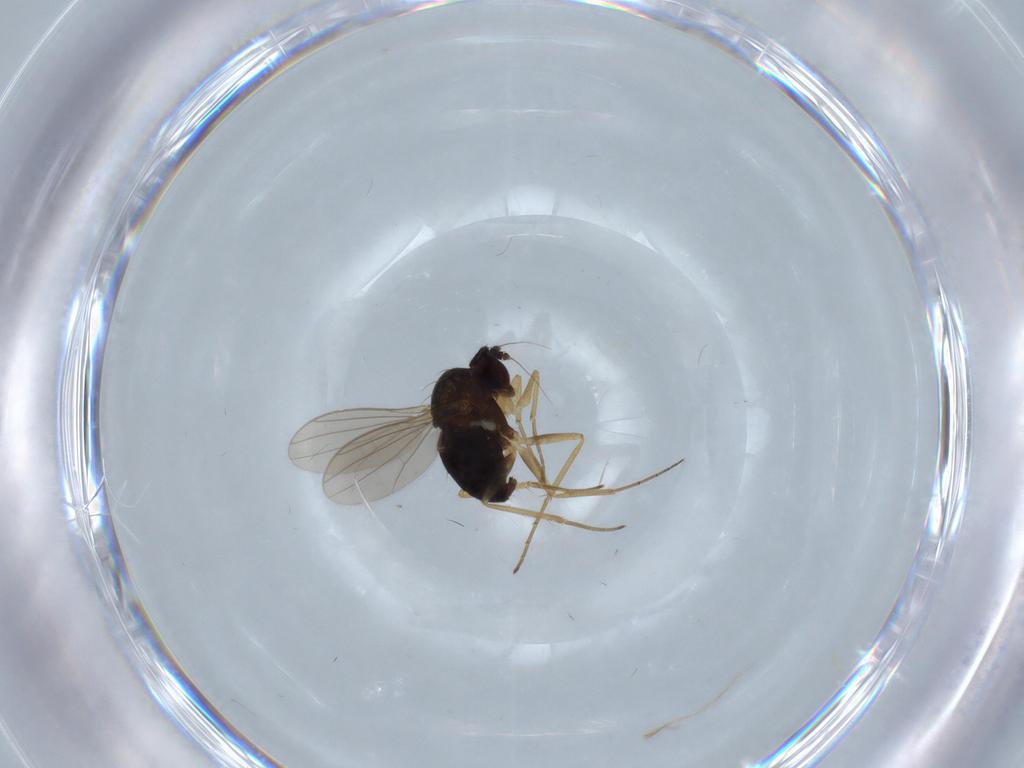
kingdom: Animalia
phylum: Arthropoda
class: Insecta
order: Diptera
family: Dolichopodidae
